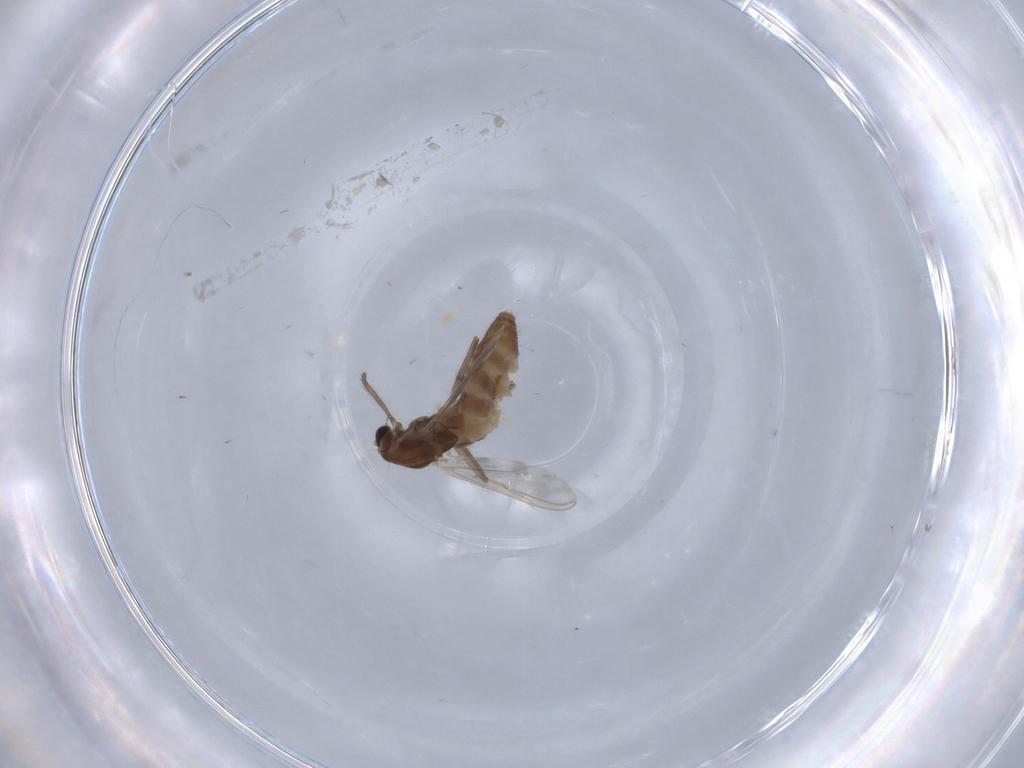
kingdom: Animalia
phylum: Arthropoda
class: Insecta
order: Diptera
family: Chironomidae
